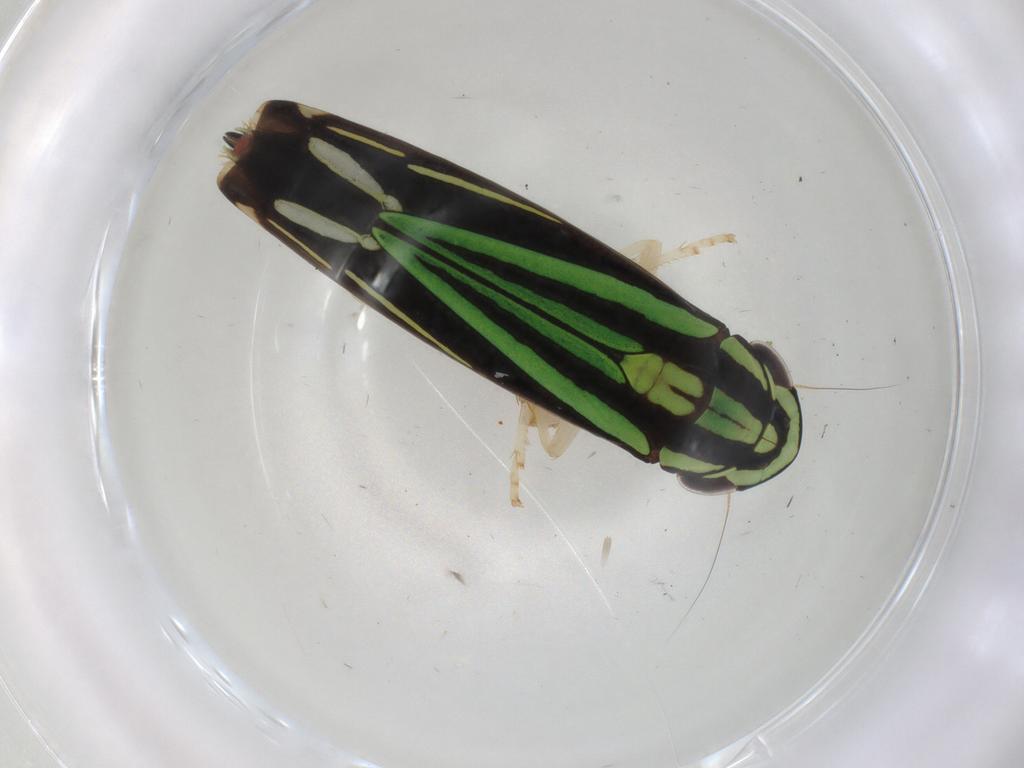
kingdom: Animalia
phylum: Arthropoda
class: Insecta
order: Hemiptera
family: Cicadellidae
